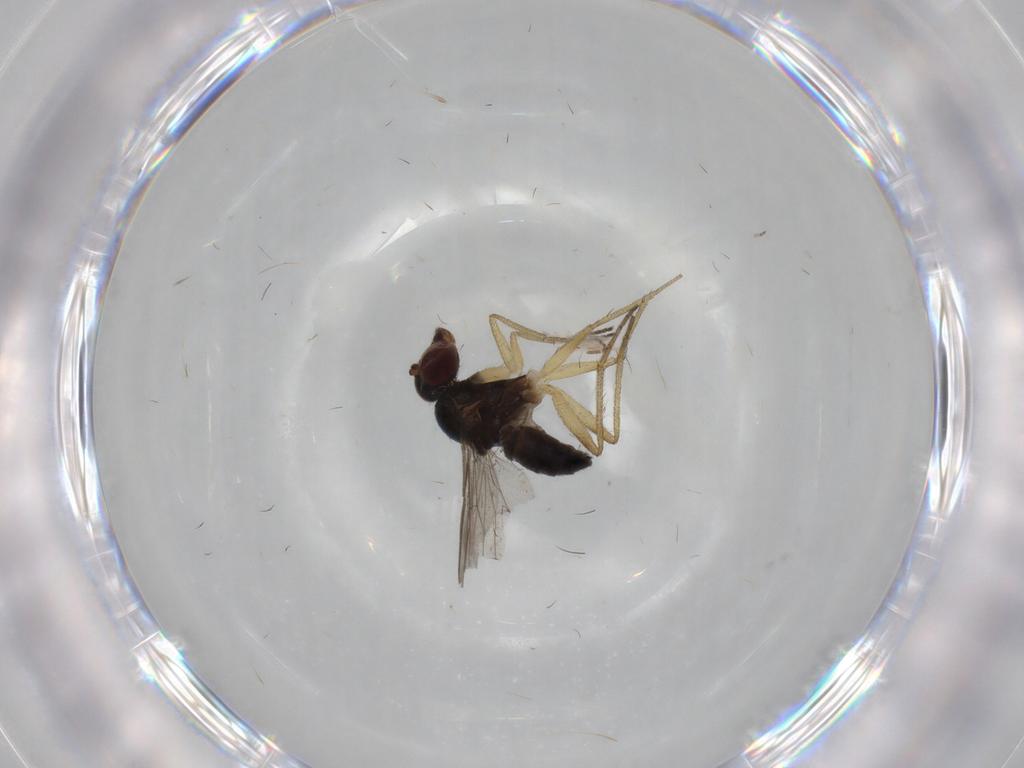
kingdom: Animalia
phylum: Arthropoda
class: Insecta
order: Diptera
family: Dolichopodidae
